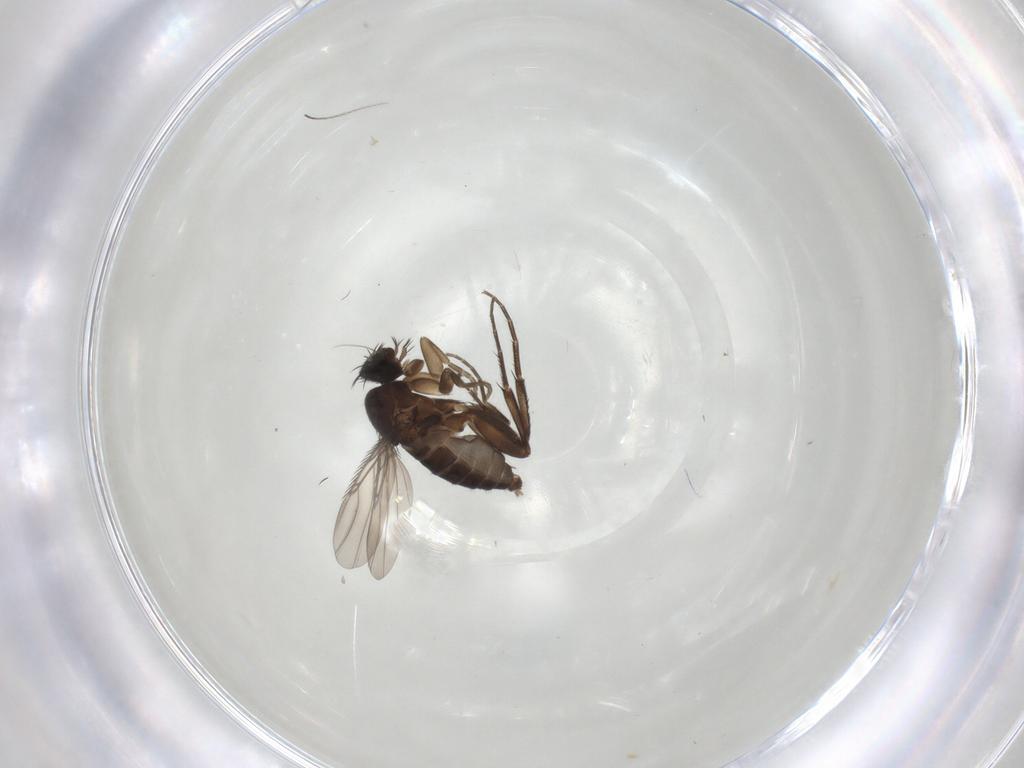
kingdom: Animalia
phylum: Arthropoda
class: Insecta
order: Diptera
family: Phoridae
